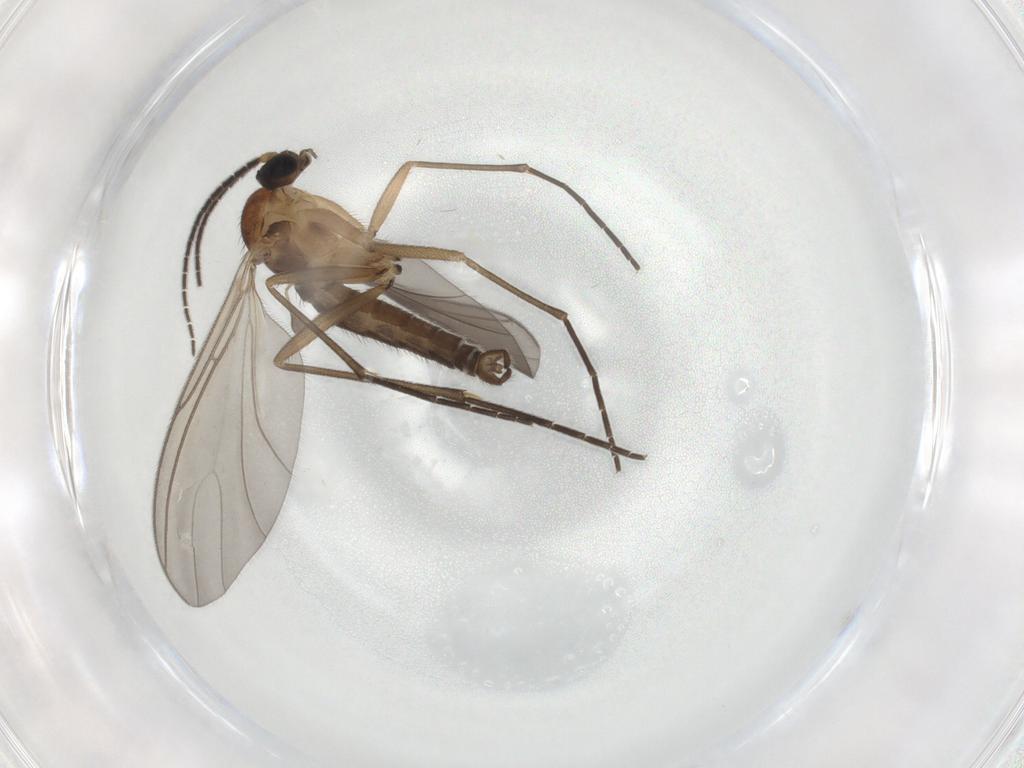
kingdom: Animalia
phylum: Arthropoda
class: Insecta
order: Diptera
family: Sciaridae
